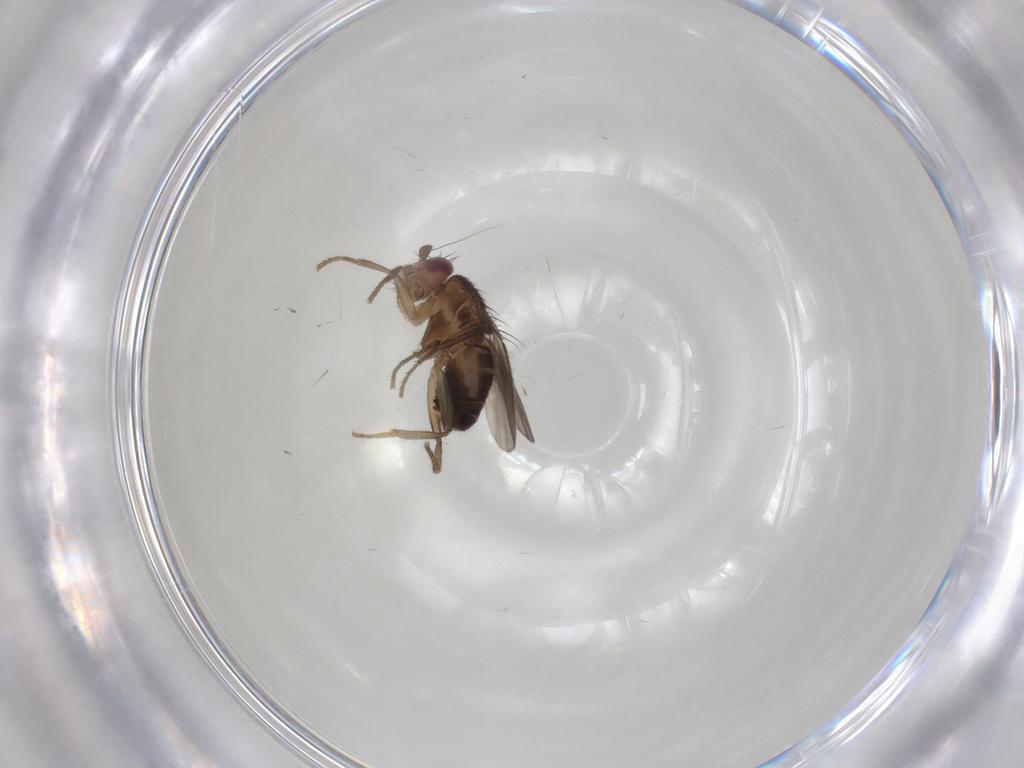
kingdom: Animalia
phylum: Arthropoda
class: Insecta
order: Diptera
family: Sphaeroceridae
